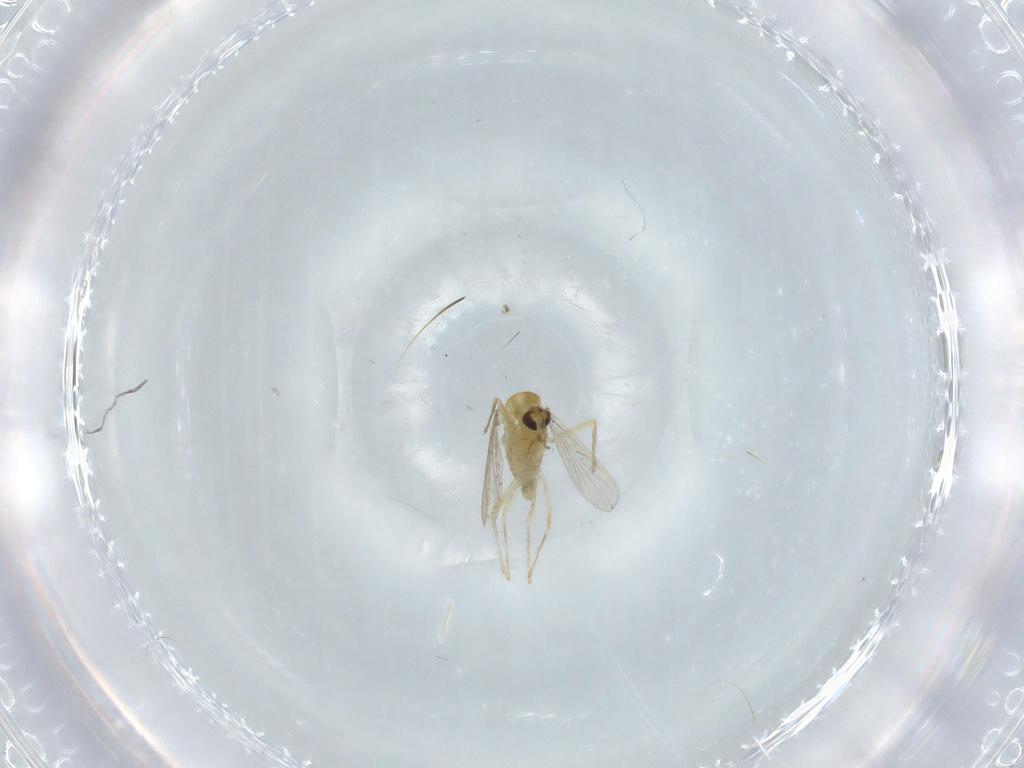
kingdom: Animalia
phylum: Arthropoda
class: Insecta
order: Diptera
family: Chironomidae
